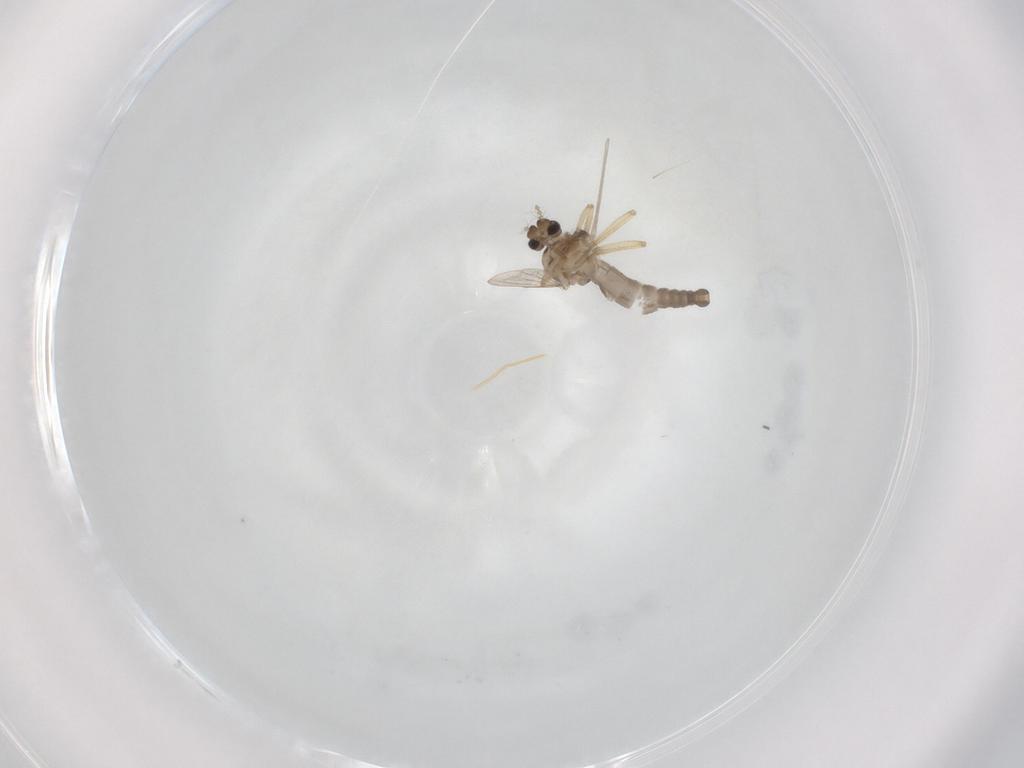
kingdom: Animalia
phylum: Arthropoda
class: Insecta
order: Diptera
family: Ceratopogonidae
